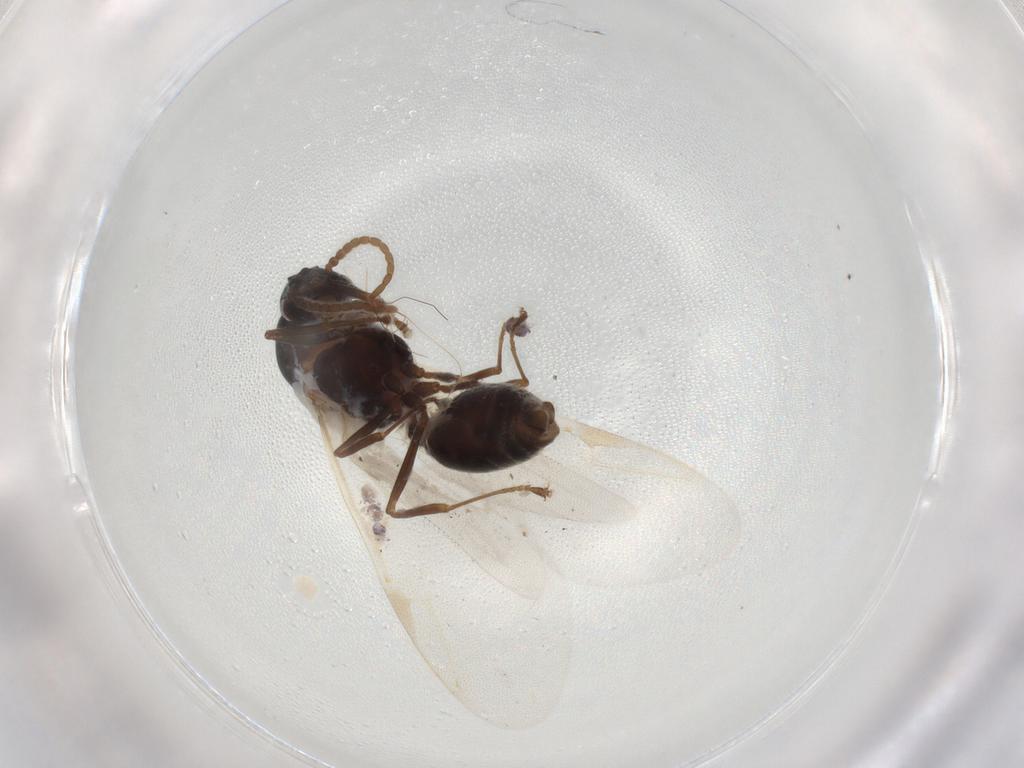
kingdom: Animalia
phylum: Arthropoda
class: Insecta
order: Hymenoptera
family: Formicidae
